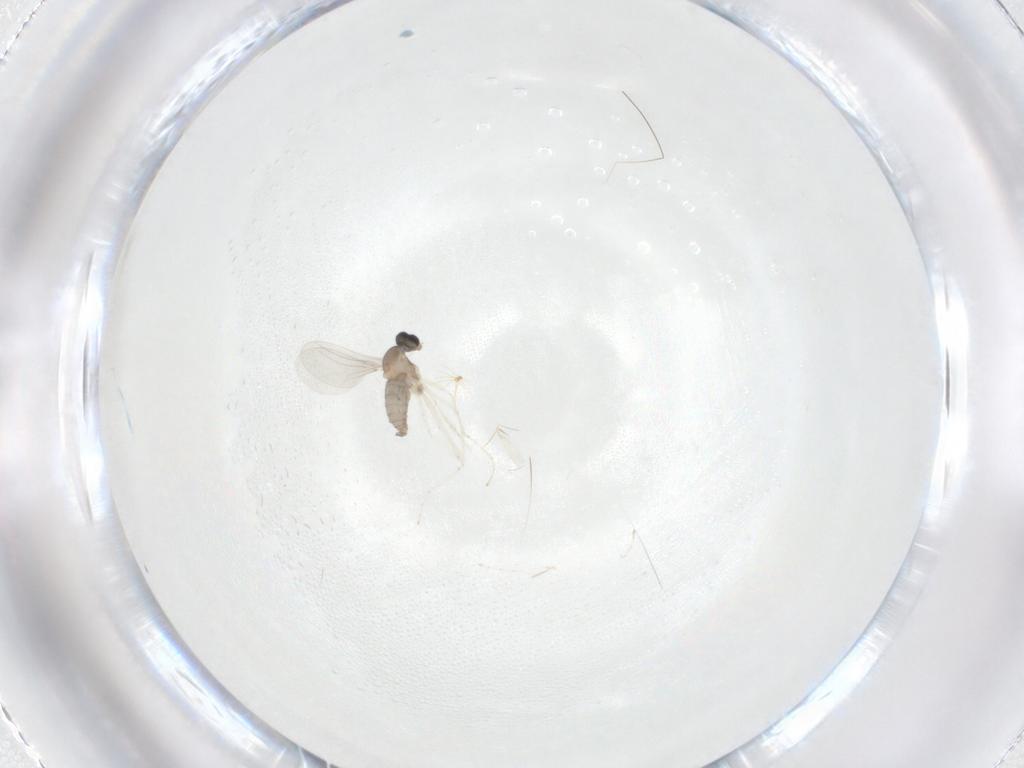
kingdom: Animalia
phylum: Arthropoda
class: Insecta
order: Diptera
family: Cecidomyiidae
